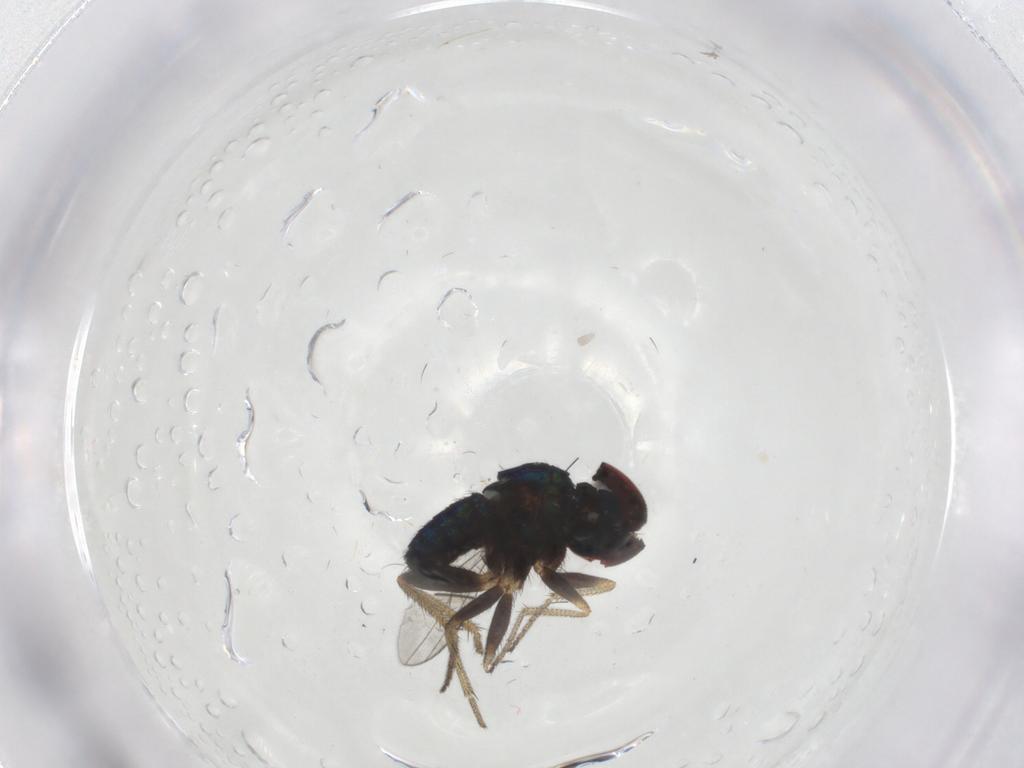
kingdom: Animalia
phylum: Arthropoda
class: Insecta
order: Diptera
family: Dolichopodidae
